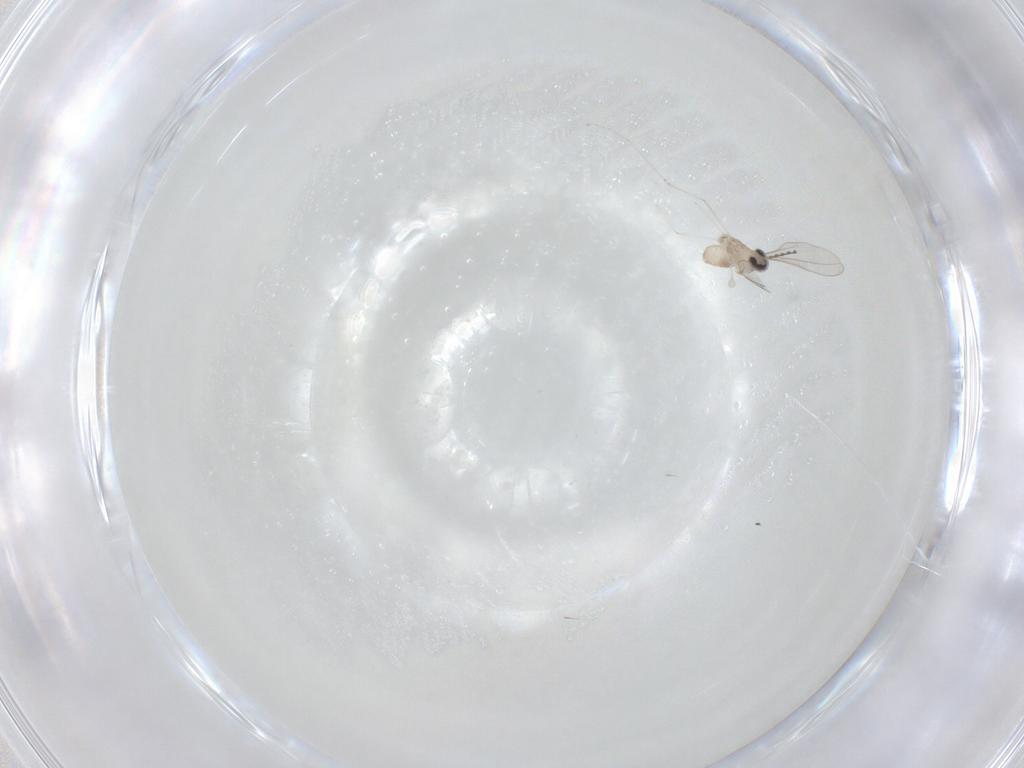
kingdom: Animalia
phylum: Arthropoda
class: Insecta
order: Diptera
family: Cecidomyiidae
